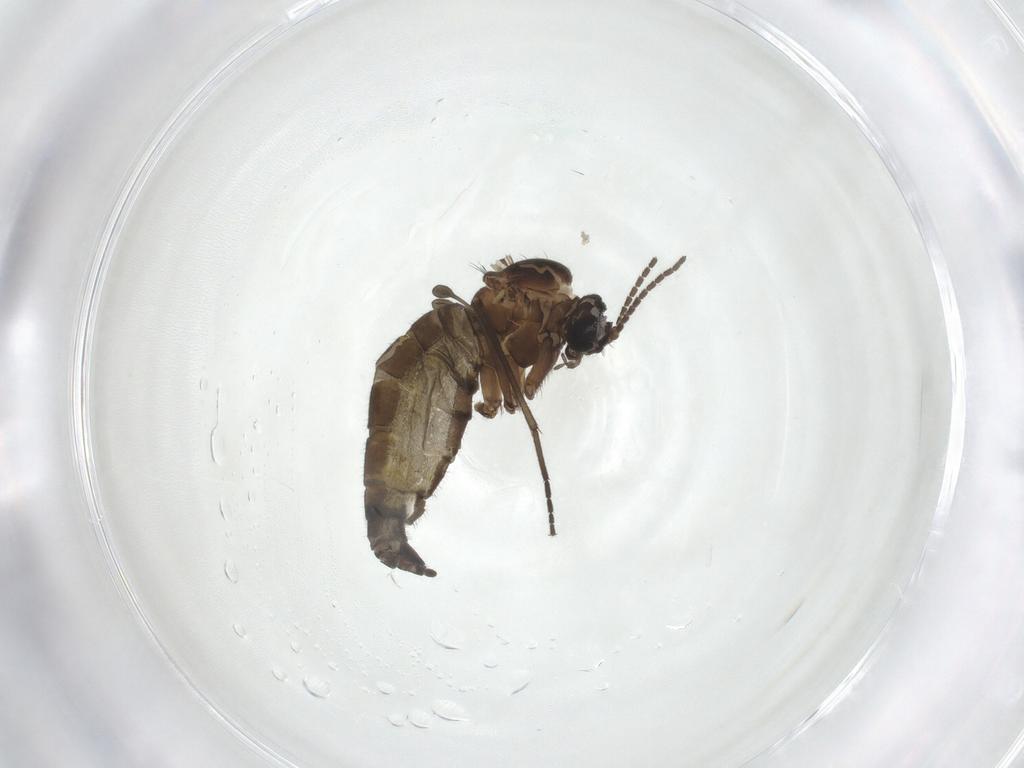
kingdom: Animalia
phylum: Arthropoda
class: Insecta
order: Diptera
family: Sciaridae
